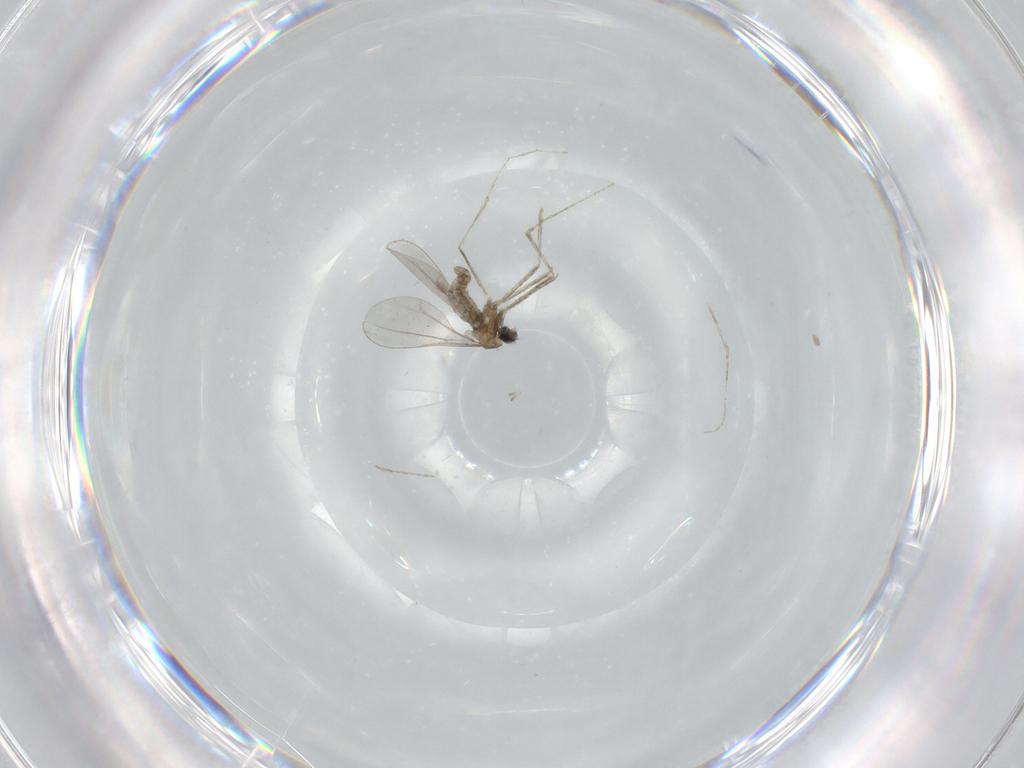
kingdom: Animalia
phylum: Arthropoda
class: Insecta
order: Diptera
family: Cecidomyiidae
